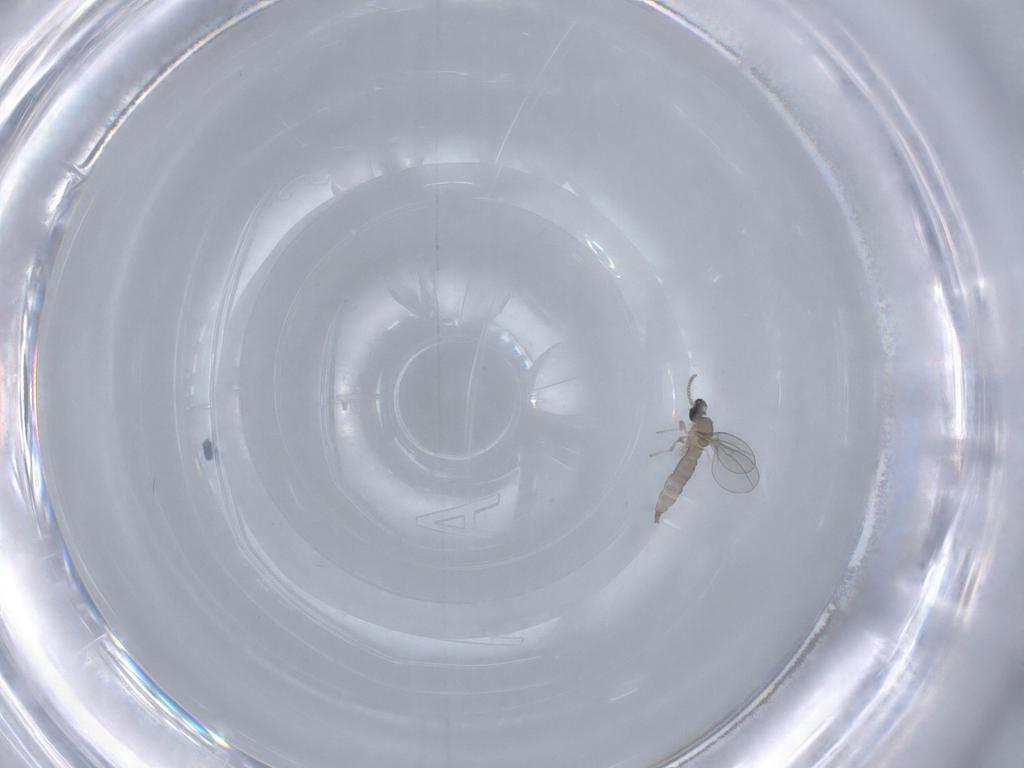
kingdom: Animalia
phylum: Arthropoda
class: Insecta
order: Diptera
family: Cecidomyiidae
